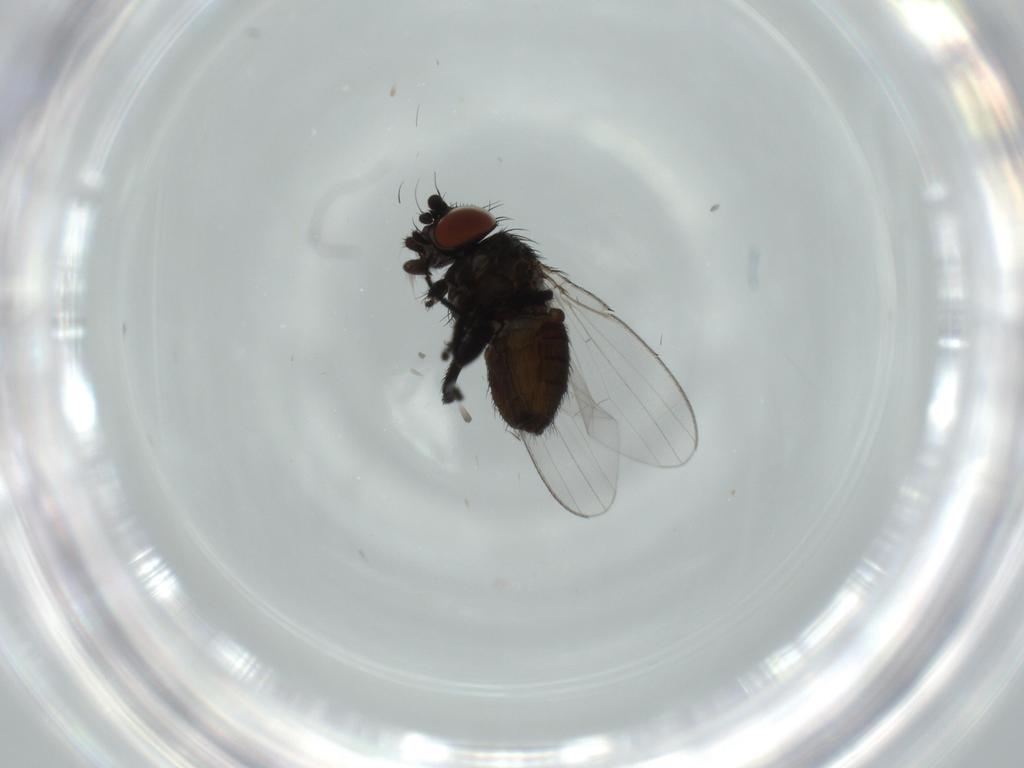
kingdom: Animalia
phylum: Arthropoda
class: Insecta
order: Diptera
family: Milichiidae
